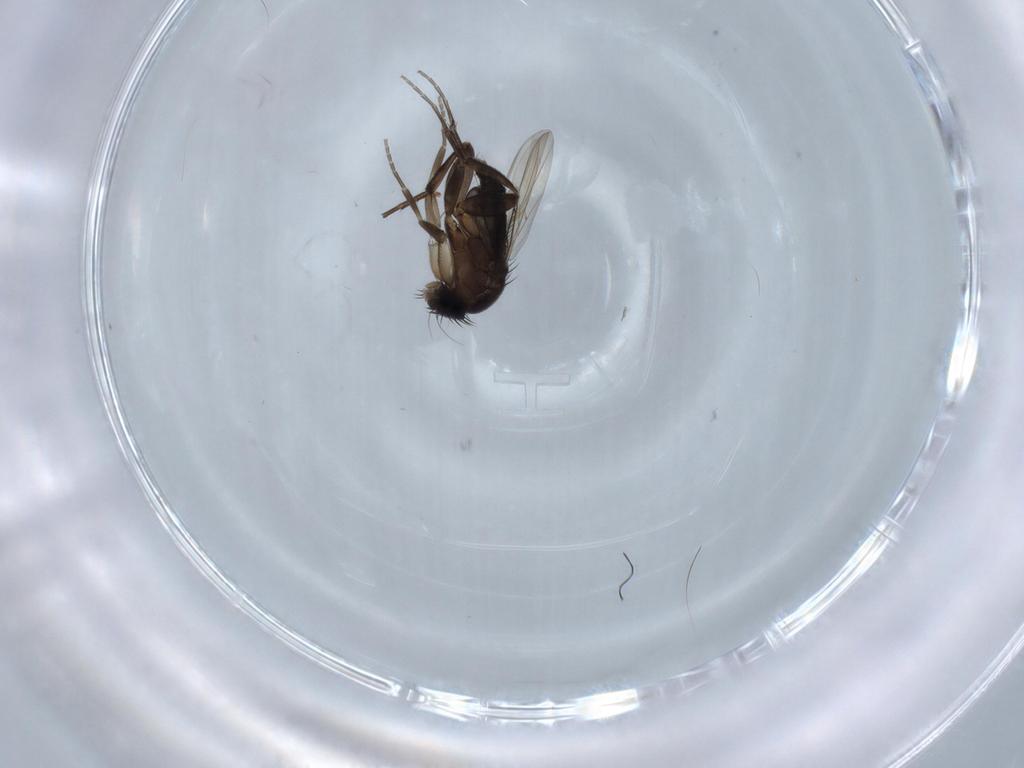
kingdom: Animalia
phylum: Arthropoda
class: Insecta
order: Diptera
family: Phoridae
